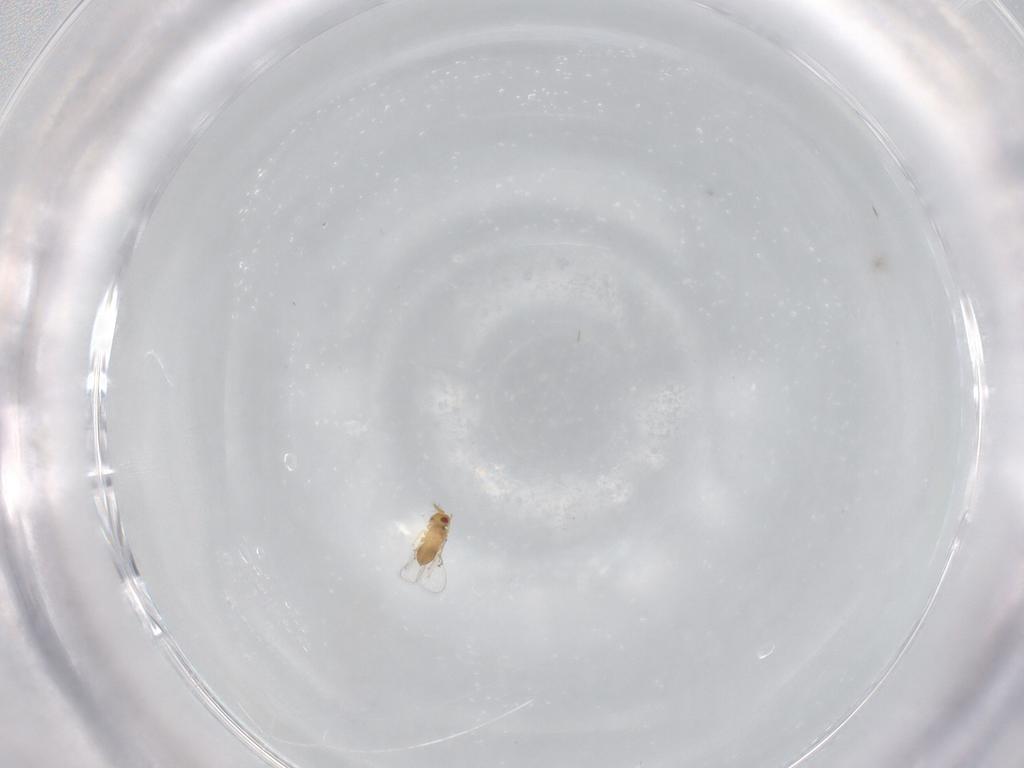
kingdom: Animalia
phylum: Arthropoda
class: Insecta
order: Hymenoptera
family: Trichogrammatidae
